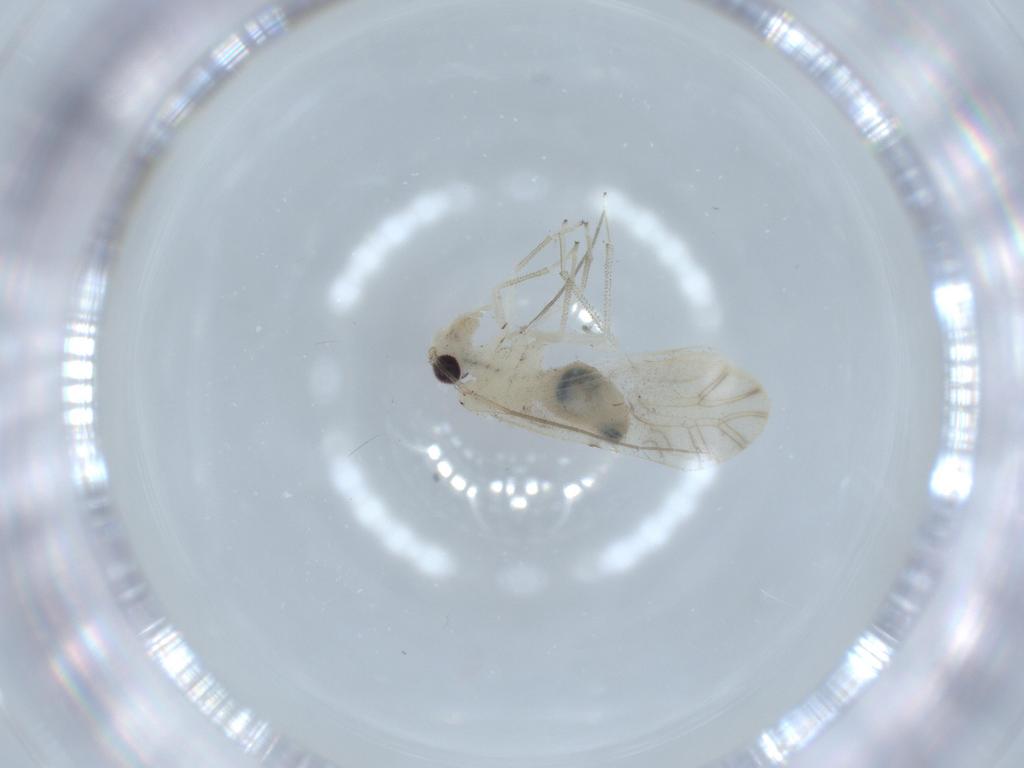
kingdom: Animalia
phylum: Arthropoda
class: Insecta
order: Psocodea
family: Caeciliusidae
